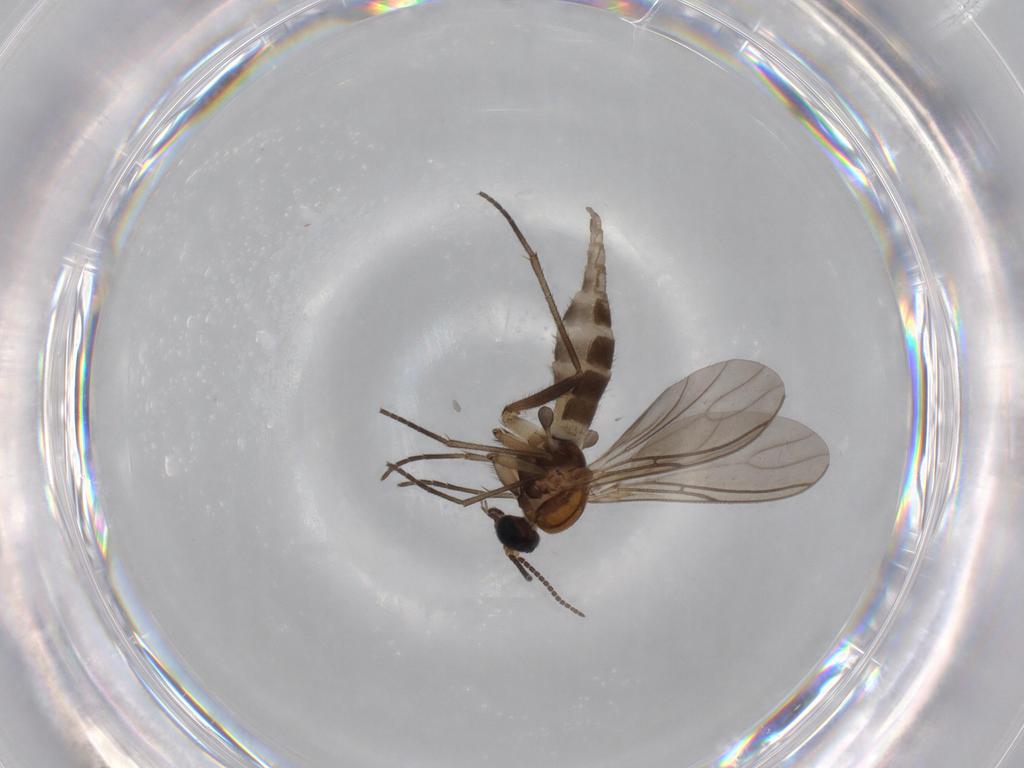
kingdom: Animalia
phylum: Arthropoda
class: Insecta
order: Diptera
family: Sciaridae
